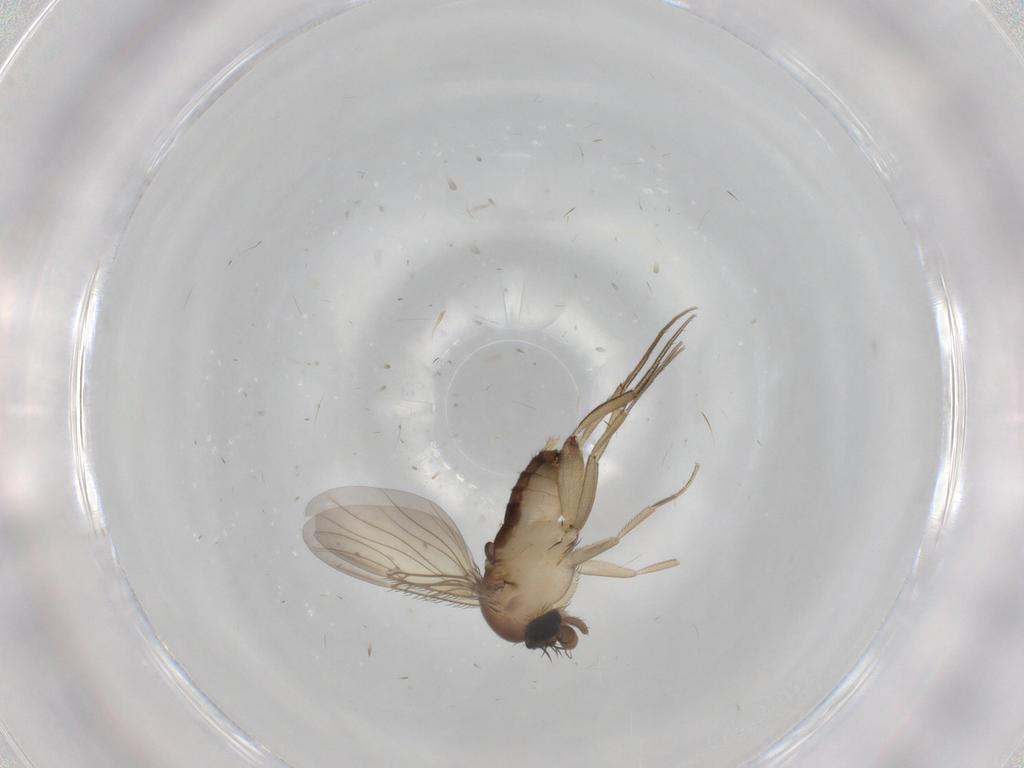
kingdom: Animalia
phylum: Arthropoda
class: Insecta
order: Diptera
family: Phoridae
